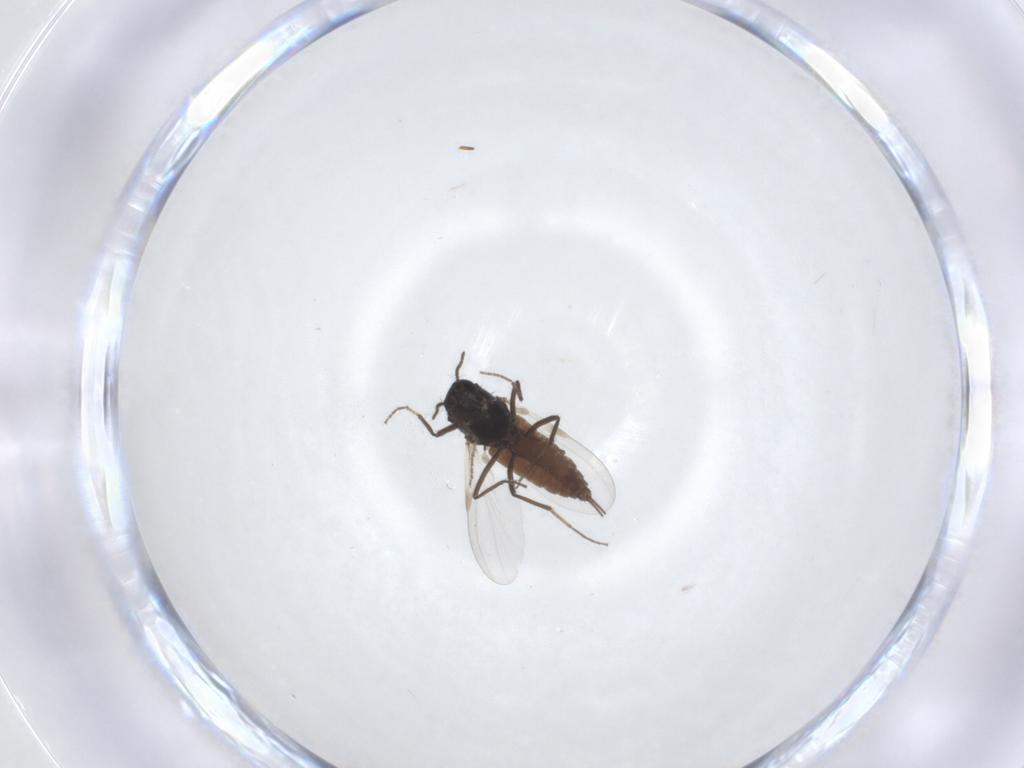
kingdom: Animalia
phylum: Arthropoda
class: Insecta
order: Diptera
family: Ceratopogonidae
